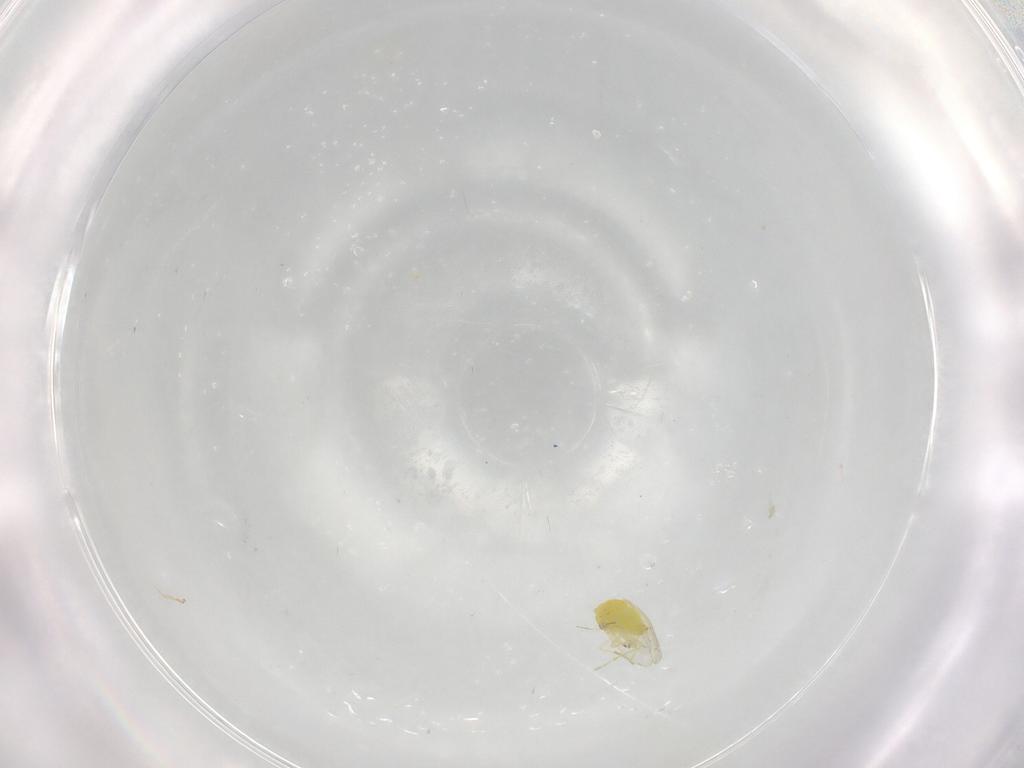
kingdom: Animalia
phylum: Arthropoda
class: Insecta
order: Hemiptera
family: Aleyrodidae
